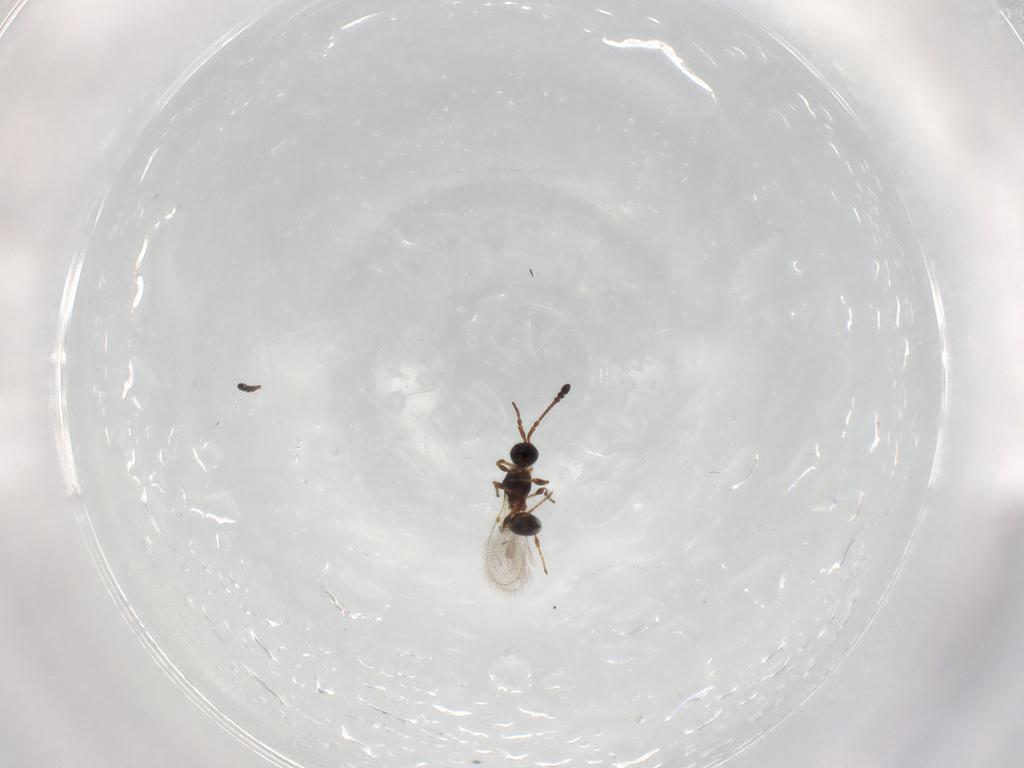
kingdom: Animalia
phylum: Arthropoda
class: Insecta
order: Hymenoptera
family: Diapriidae
